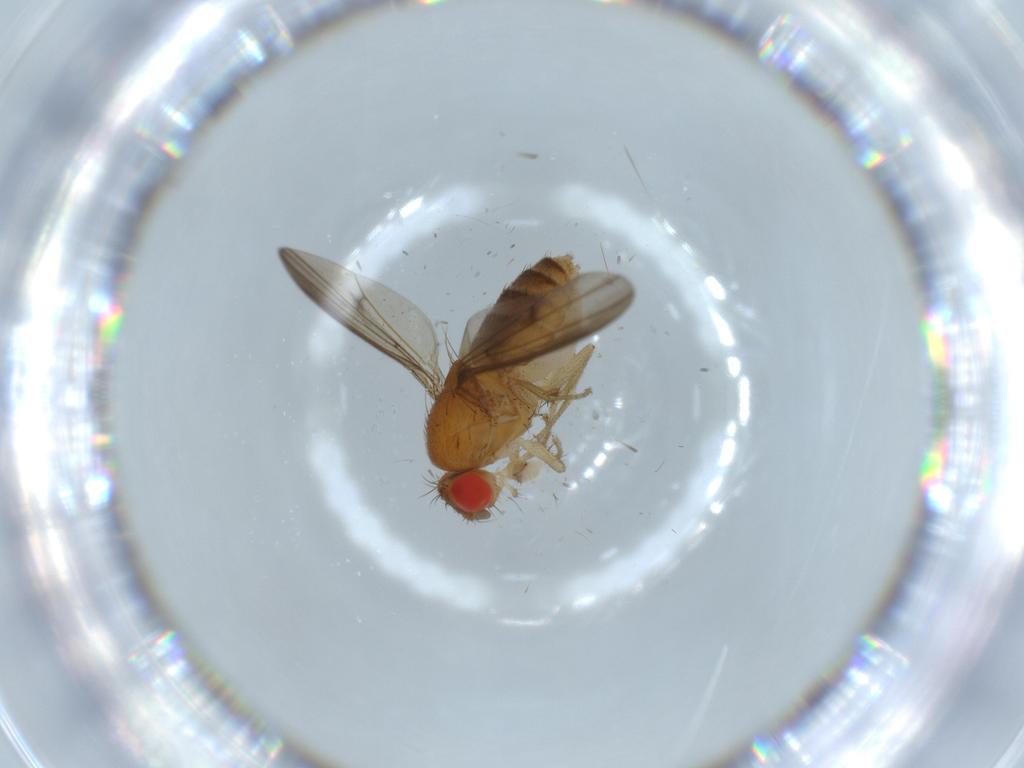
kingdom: Animalia
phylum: Arthropoda
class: Insecta
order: Diptera
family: Drosophilidae
